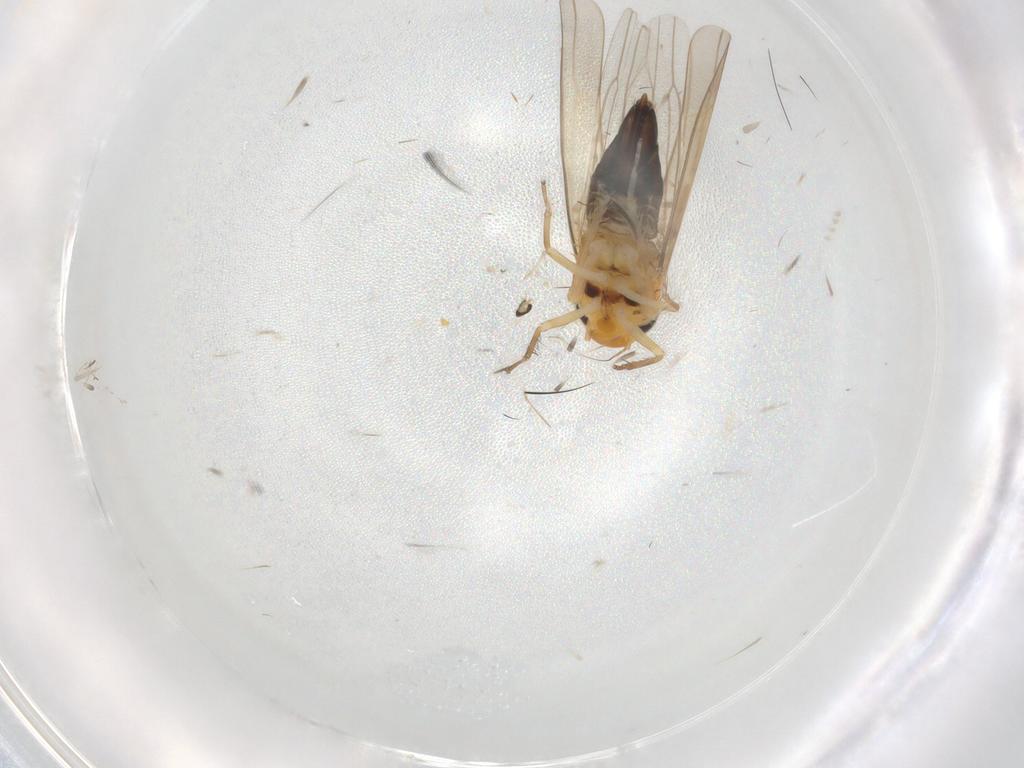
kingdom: Animalia
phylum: Arthropoda
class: Insecta
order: Hemiptera
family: Cicadellidae
